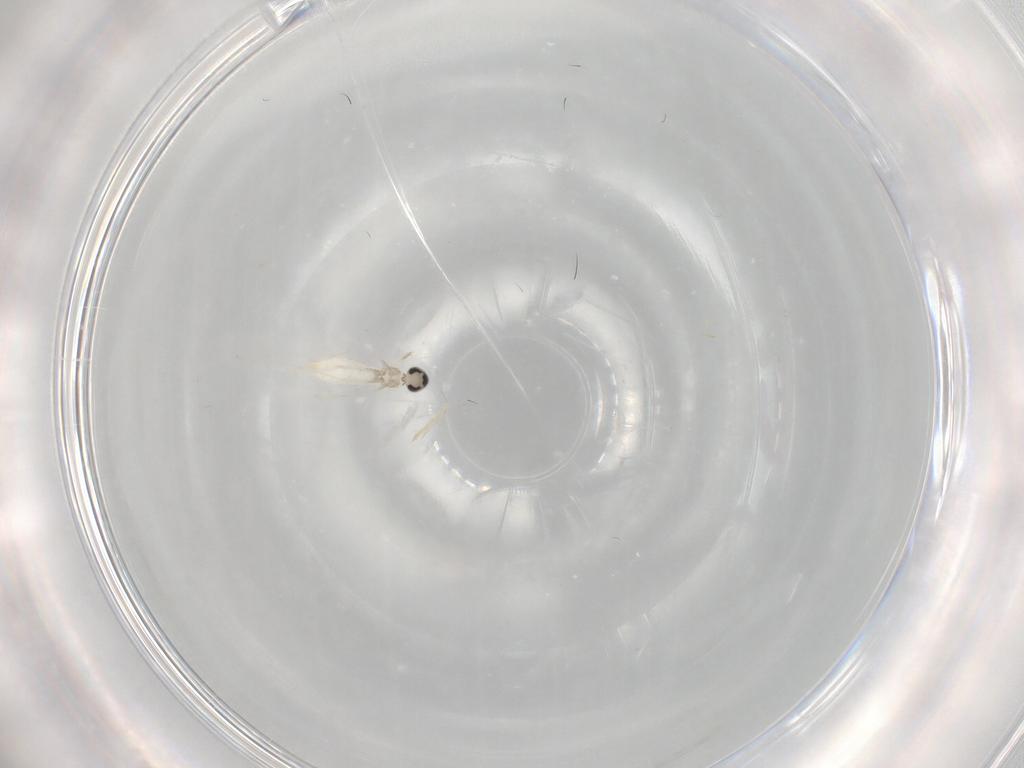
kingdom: Animalia
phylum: Arthropoda
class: Insecta
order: Diptera
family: Cecidomyiidae
